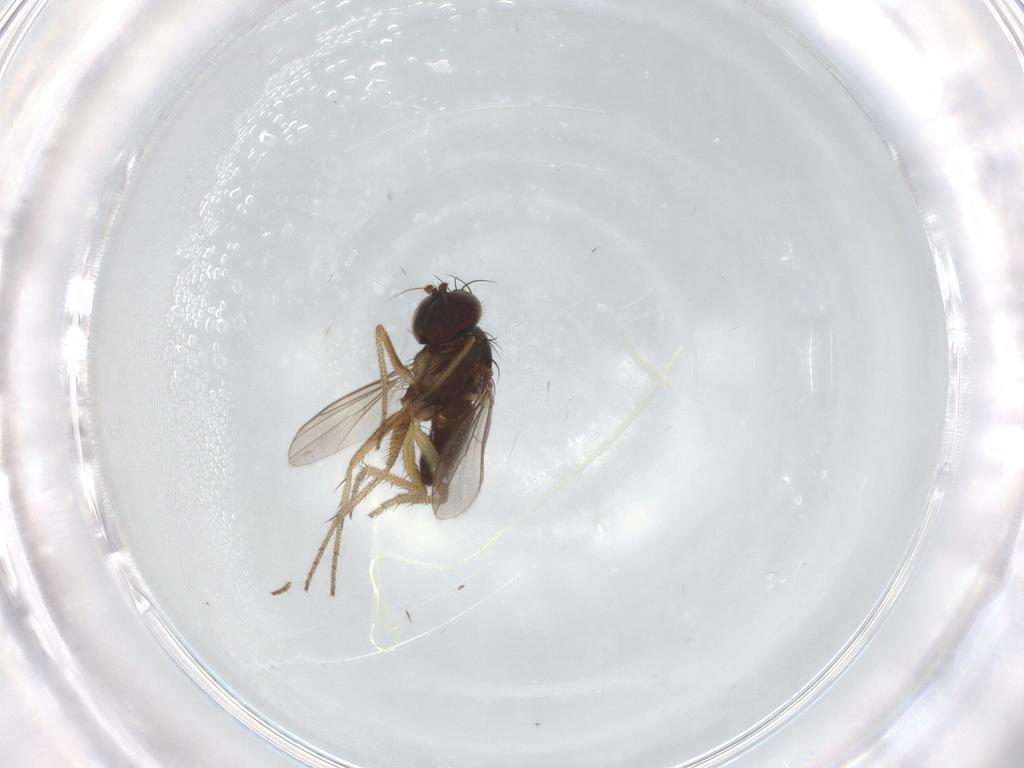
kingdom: Animalia
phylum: Arthropoda
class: Insecta
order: Diptera
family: Dolichopodidae
